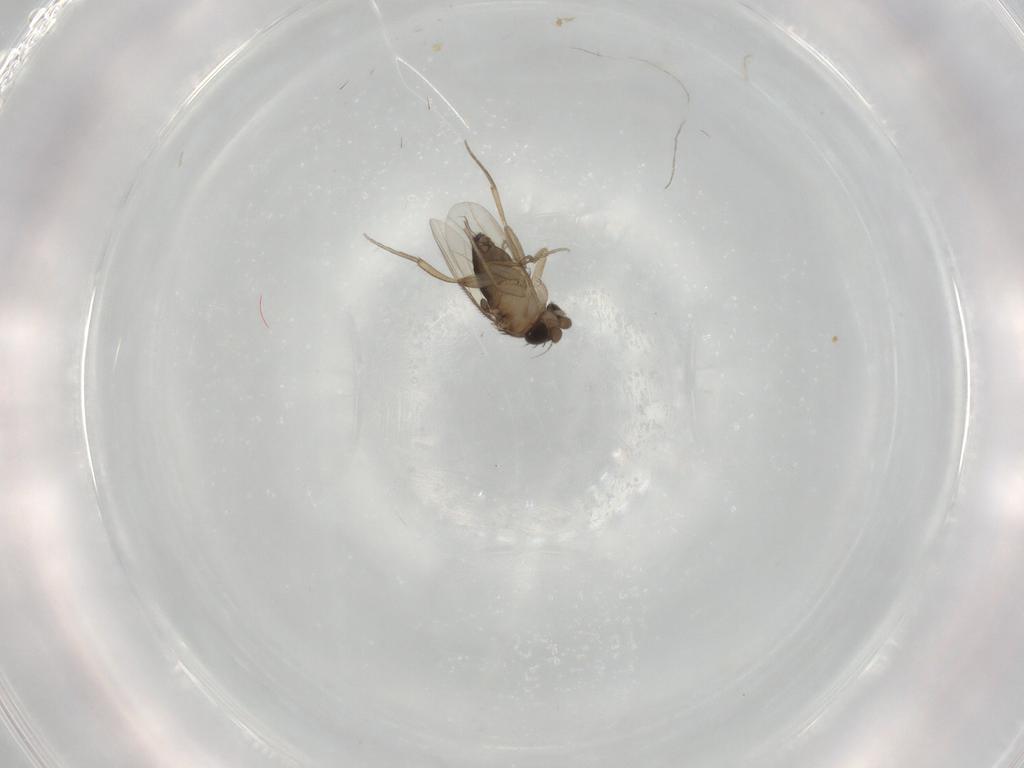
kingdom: Animalia
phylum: Arthropoda
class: Insecta
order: Diptera
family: Phoridae
